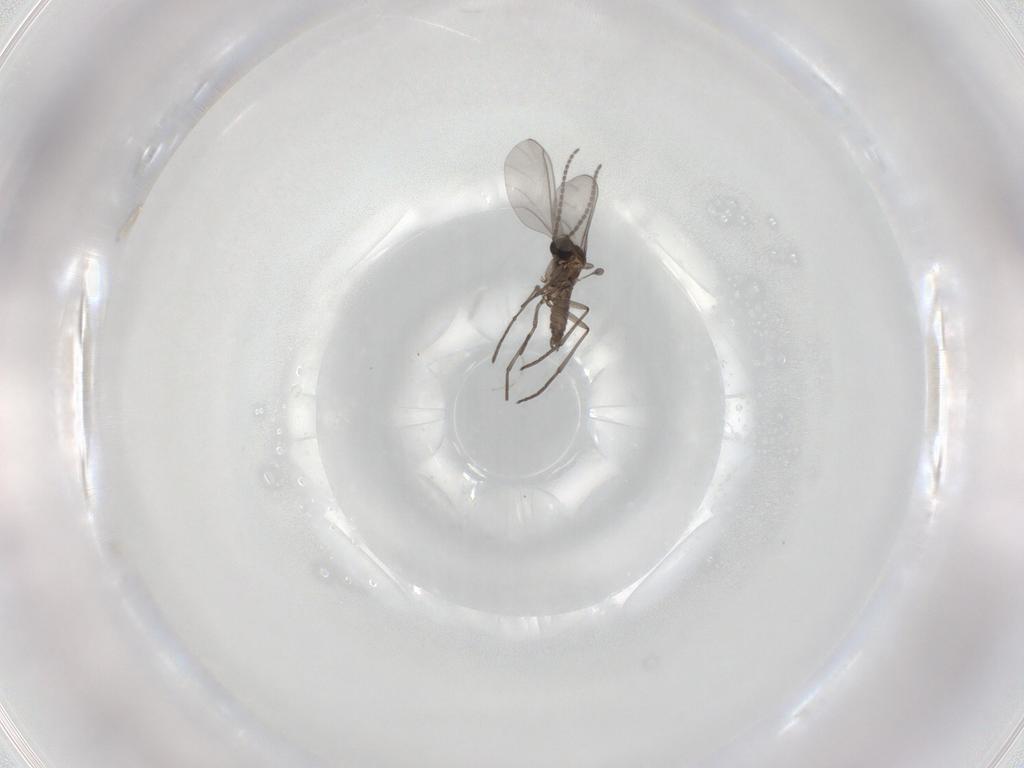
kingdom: Animalia
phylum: Arthropoda
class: Insecta
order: Diptera
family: Sciaridae
